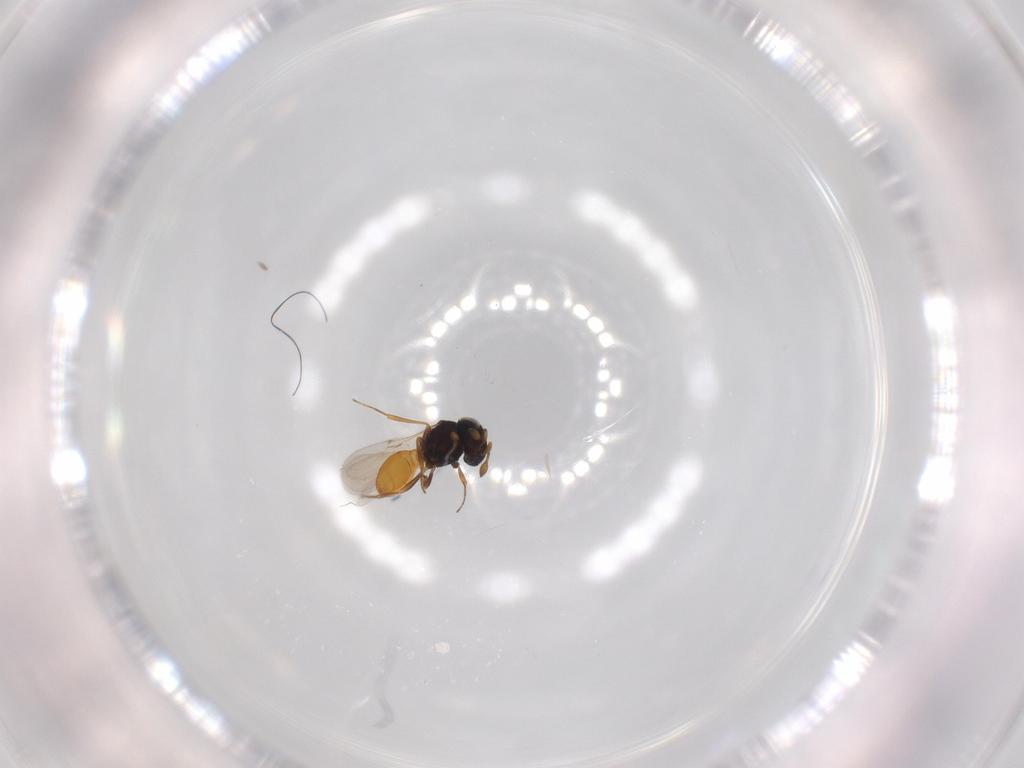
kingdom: Animalia
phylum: Arthropoda
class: Insecta
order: Hymenoptera
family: Scelionidae
